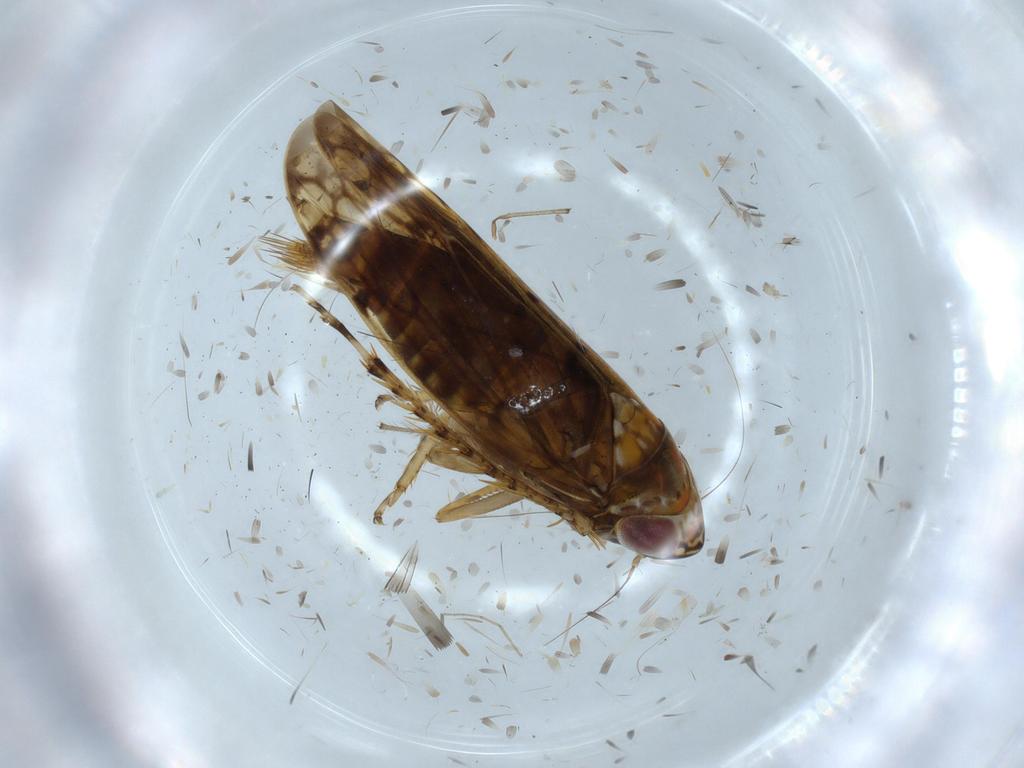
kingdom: Animalia
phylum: Arthropoda
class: Insecta
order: Hemiptera
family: Cicadellidae
